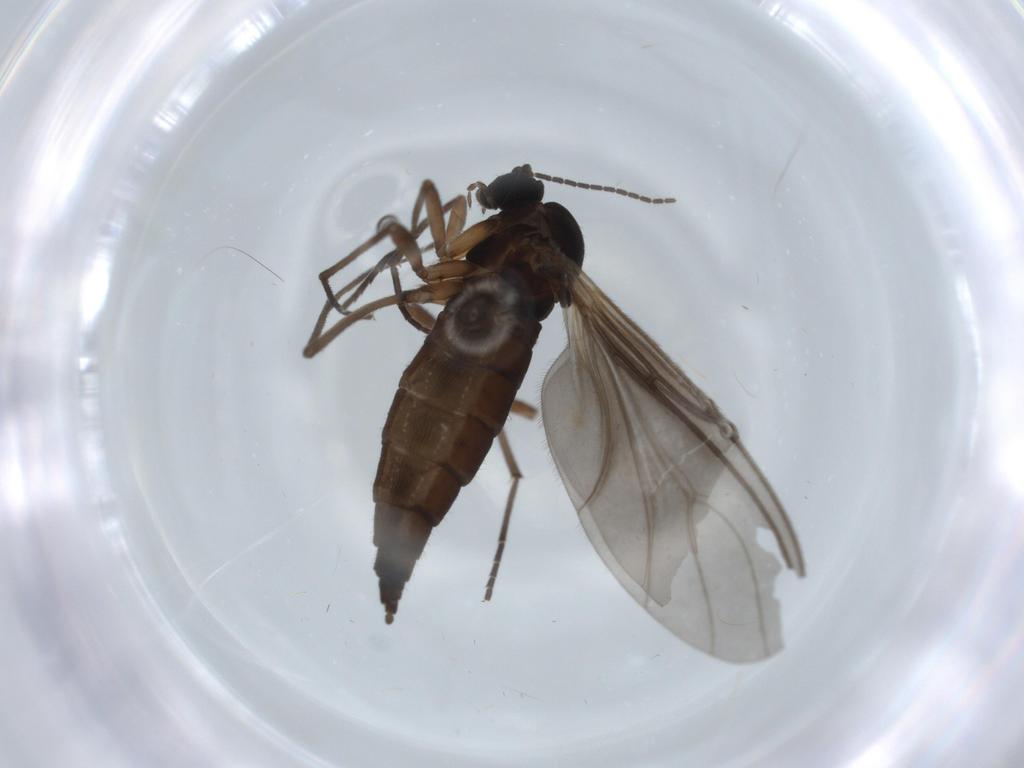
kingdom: Animalia
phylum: Arthropoda
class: Insecta
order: Diptera
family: Sciaridae
